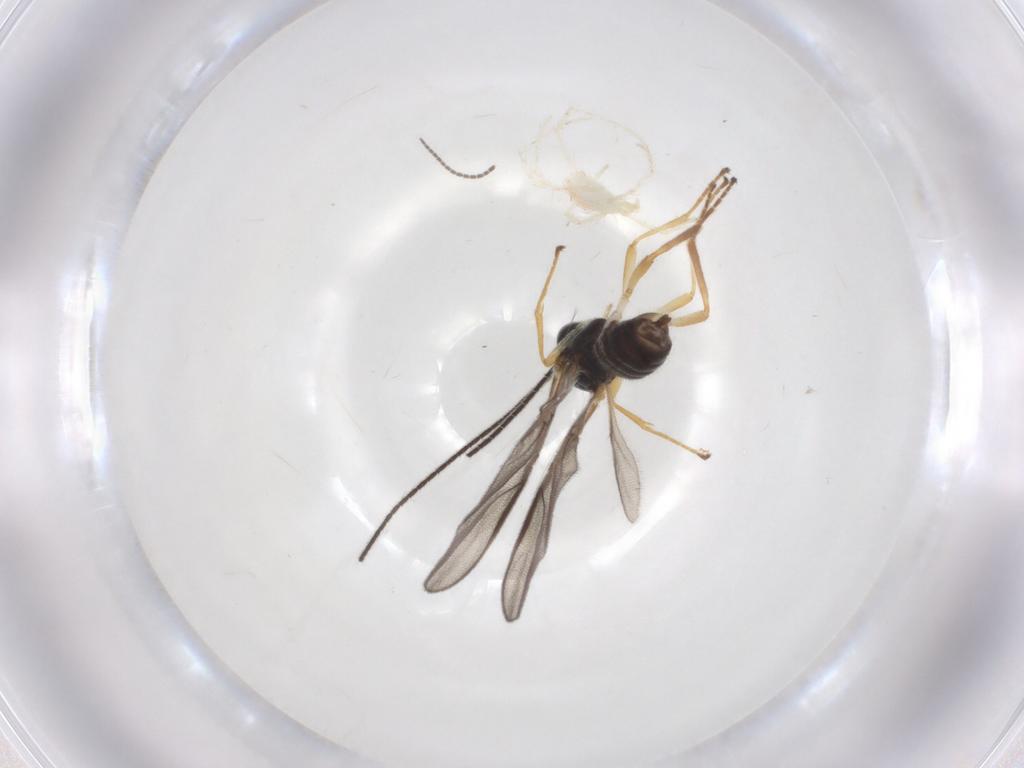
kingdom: Animalia
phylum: Arthropoda
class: Insecta
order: Hymenoptera
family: Braconidae
